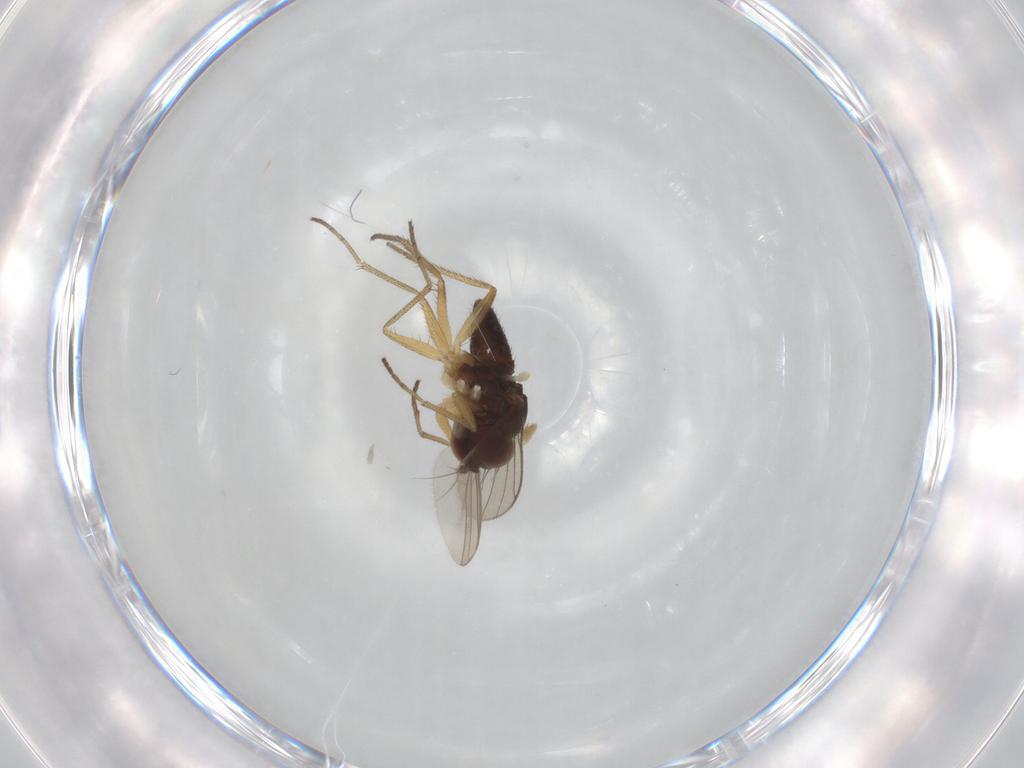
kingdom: Animalia
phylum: Arthropoda
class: Insecta
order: Diptera
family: Dolichopodidae
